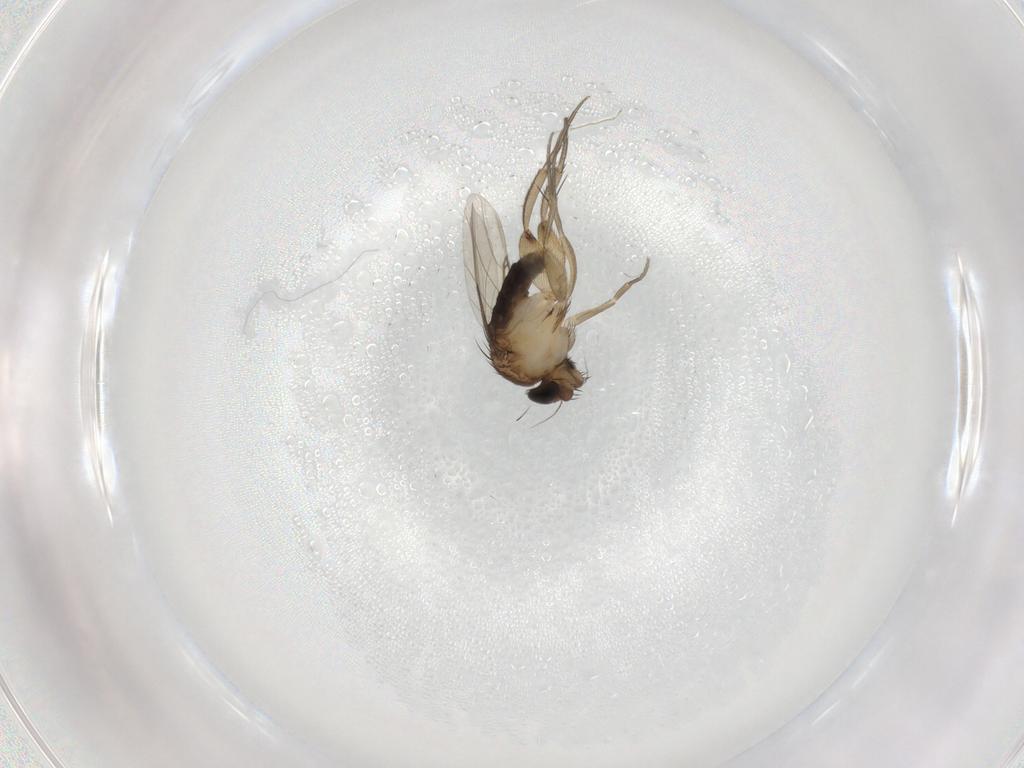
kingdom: Animalia
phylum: Arthropoda
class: Insecta
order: Diptera
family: Phoridae
